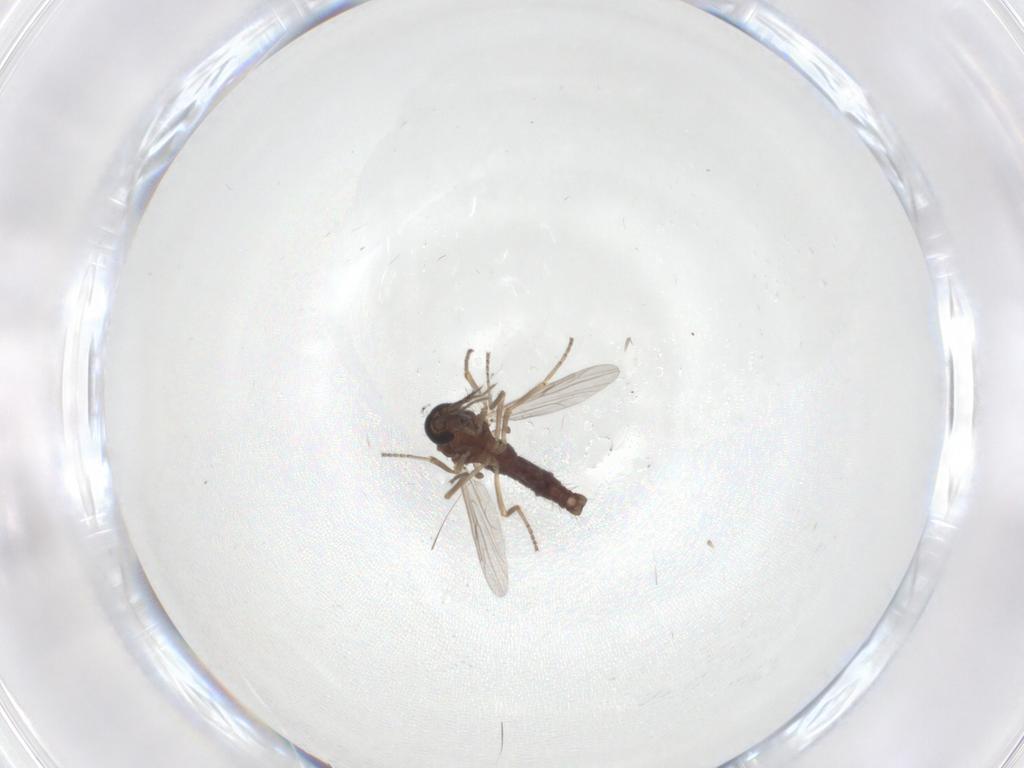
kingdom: Animalia
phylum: Arthropoda
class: Insecta
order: Diptera
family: Ceratopogonidae
